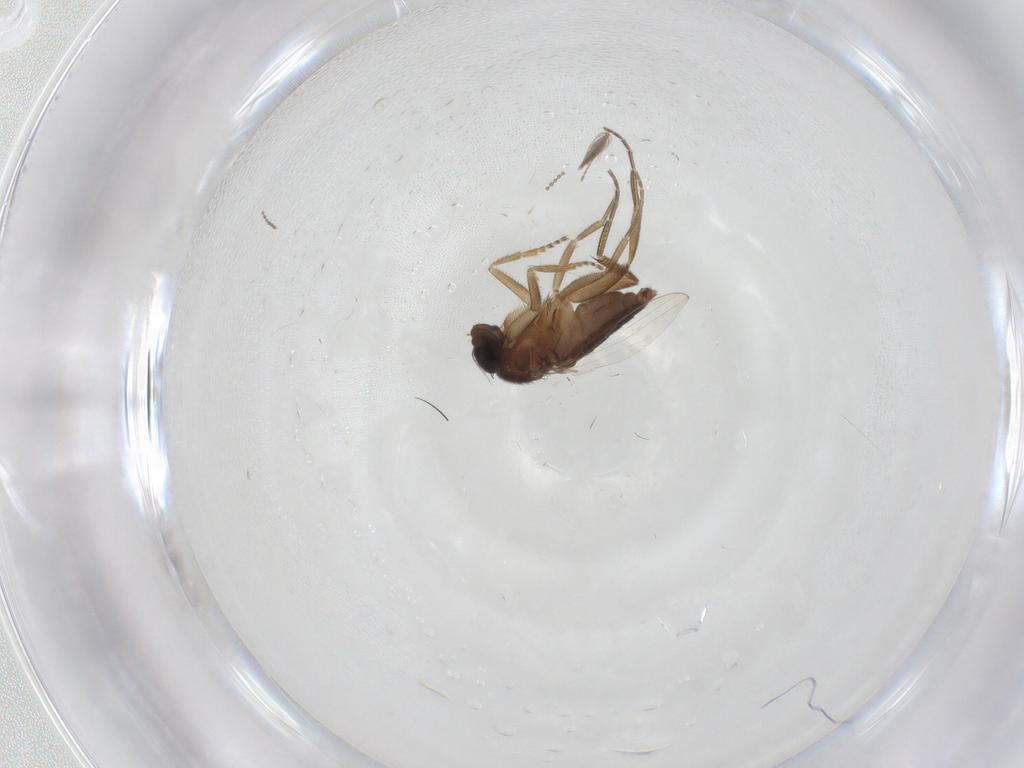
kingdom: Animalia
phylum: Arthropoda
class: Insecta
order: Diptera
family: Phoridae
